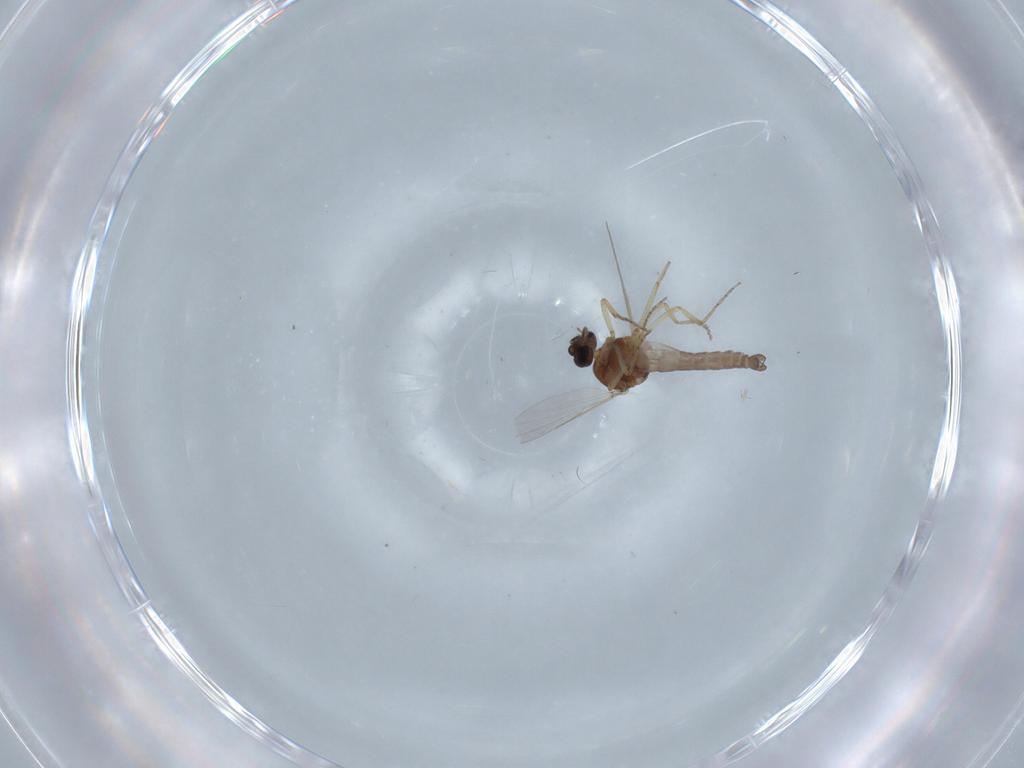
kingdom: Animalia
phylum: Arthropoda
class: Insecta
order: Diptera
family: Ceratopogonidae
